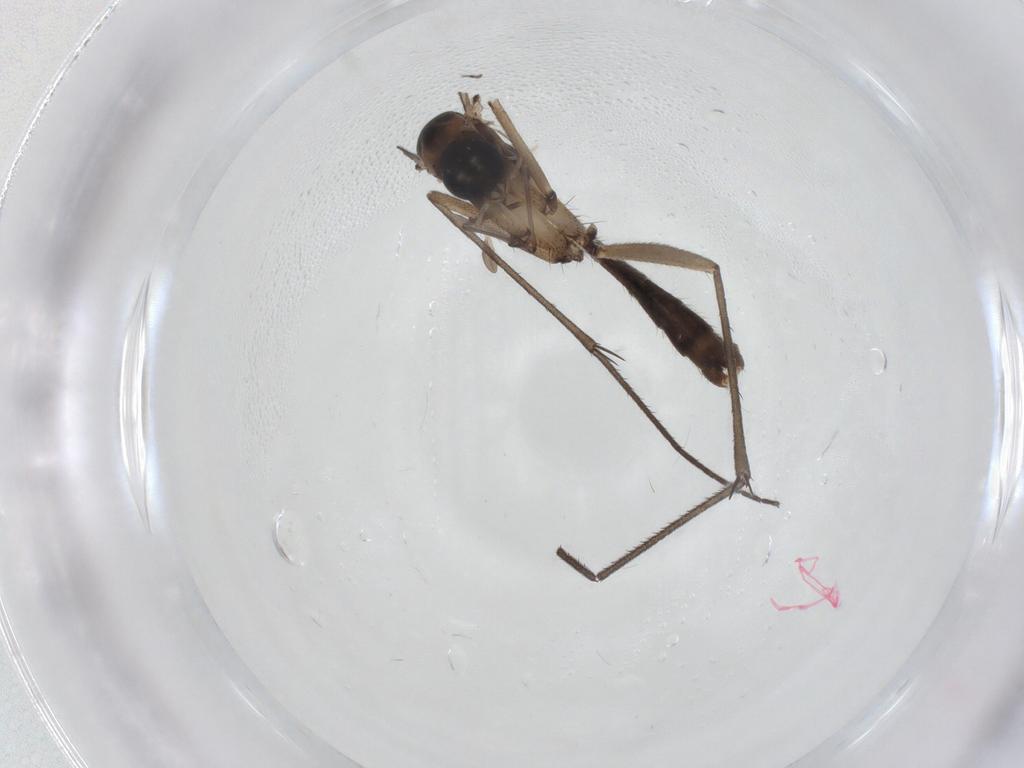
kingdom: Animalia
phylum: Arthropoda
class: Insecta
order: Diptera
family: Mycetophilidae
